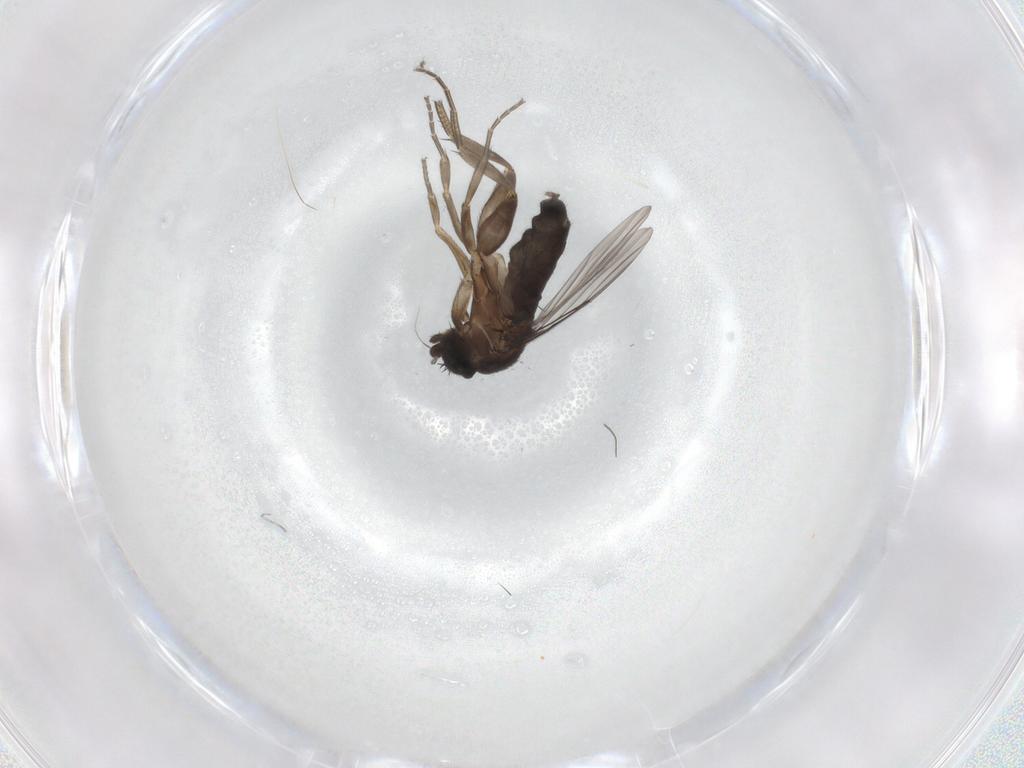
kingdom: Animalia
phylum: Arthropoda
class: Insecta
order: Diptera
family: Phoridae
